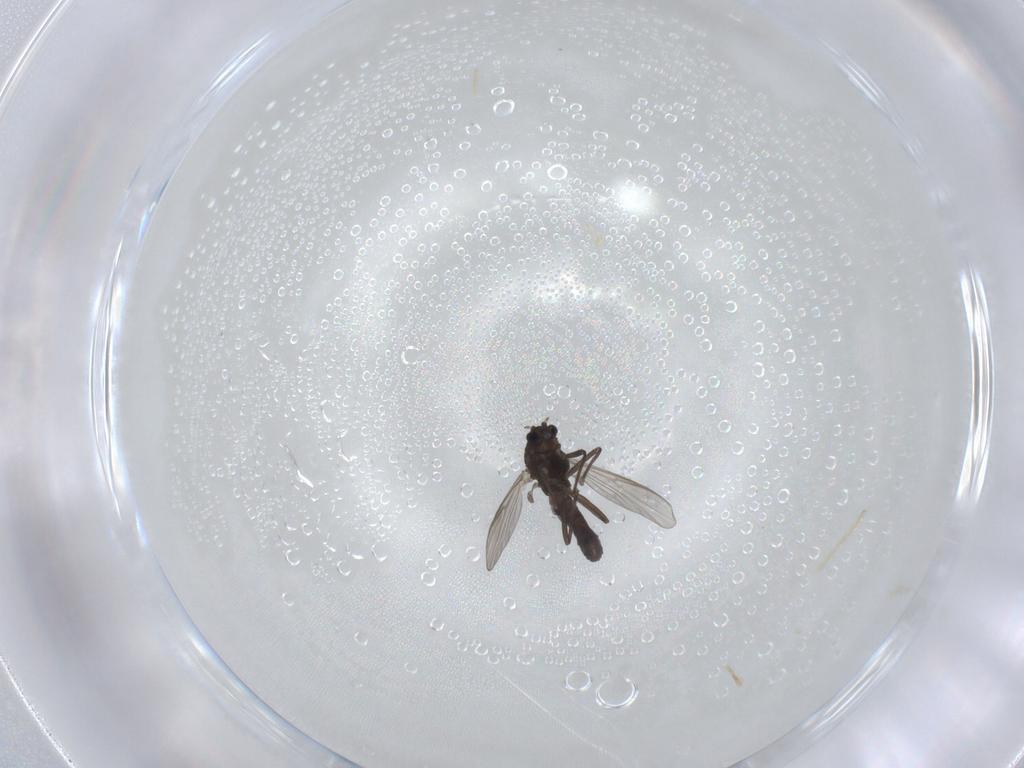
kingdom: Animalia
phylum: Arthropoda
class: Insecta
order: Diptera
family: Chironomidae
